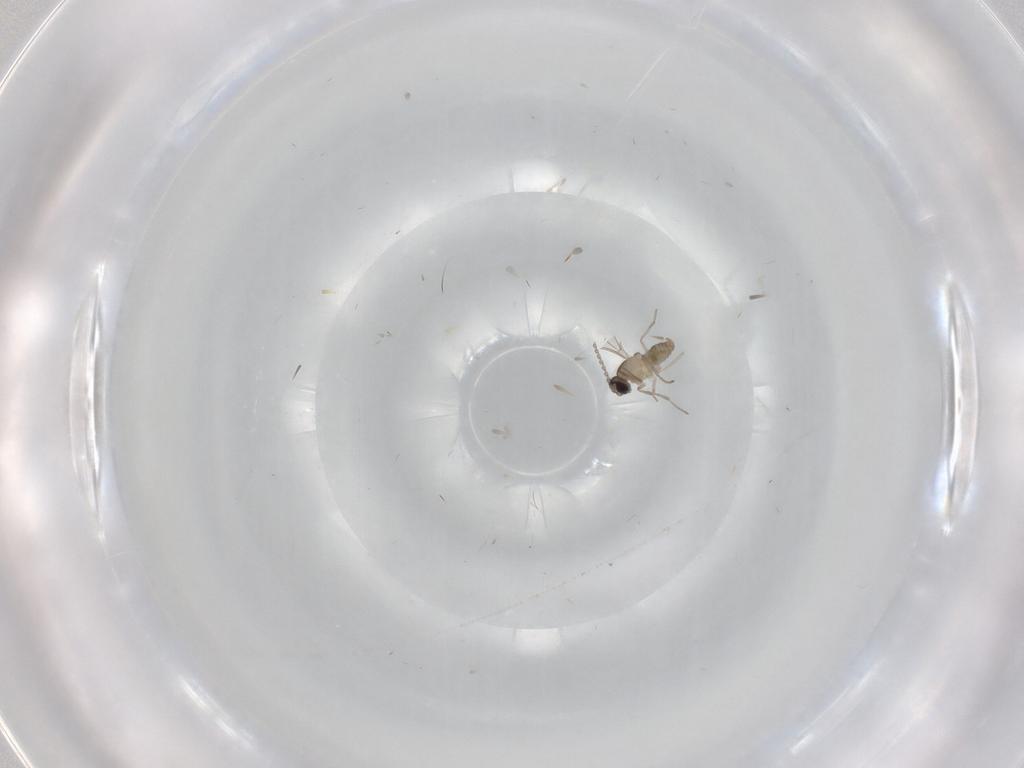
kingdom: Animalia
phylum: Arthropoda
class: Insecta
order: Diptera
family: Cecidomyiidae
